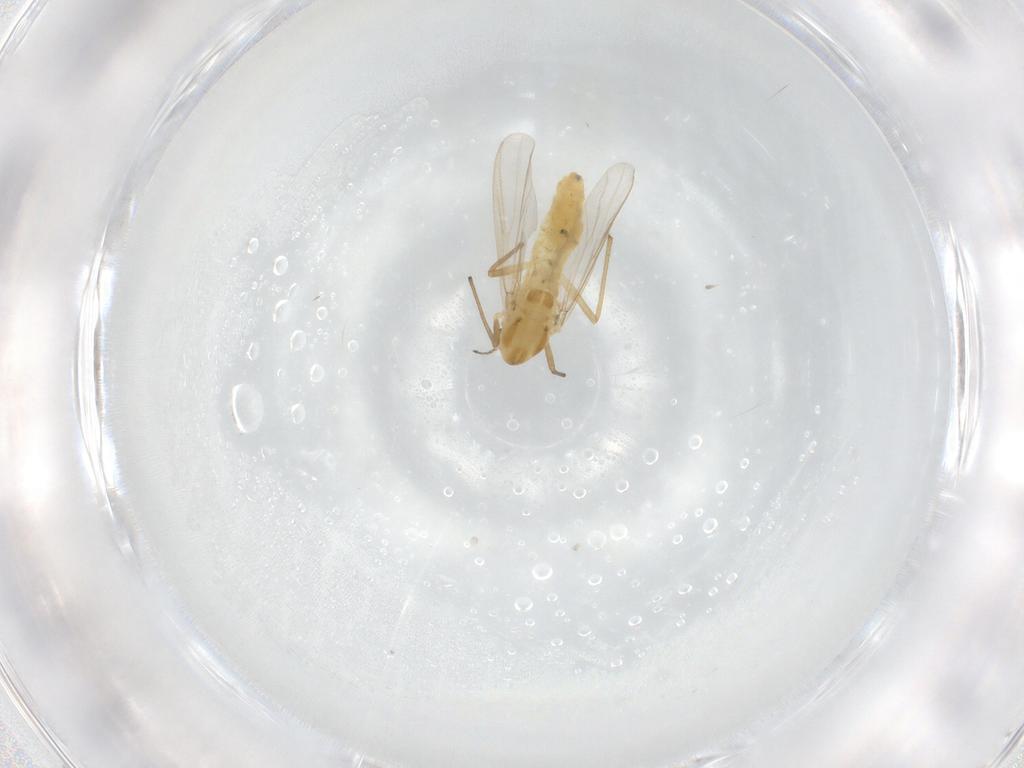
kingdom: Animalia
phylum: Arthropoda
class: Insecta
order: Diptera
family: Chironomidae
